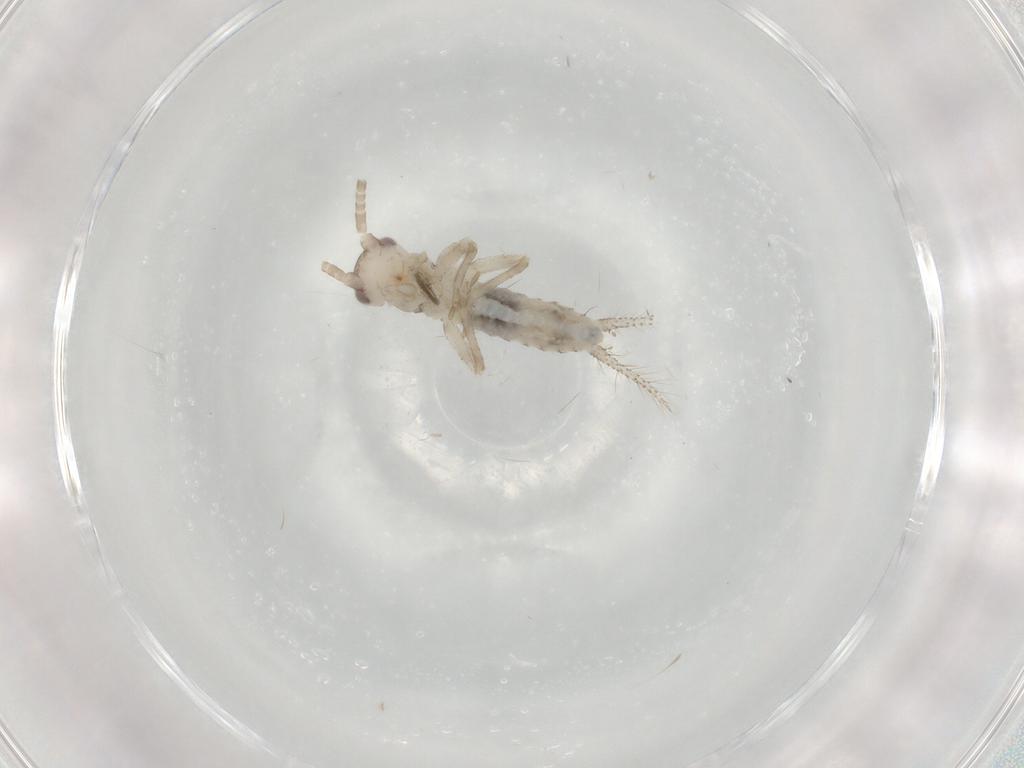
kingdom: Animalia
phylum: Arthropoda
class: Insecta
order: Orthoptera
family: Gryllidae
